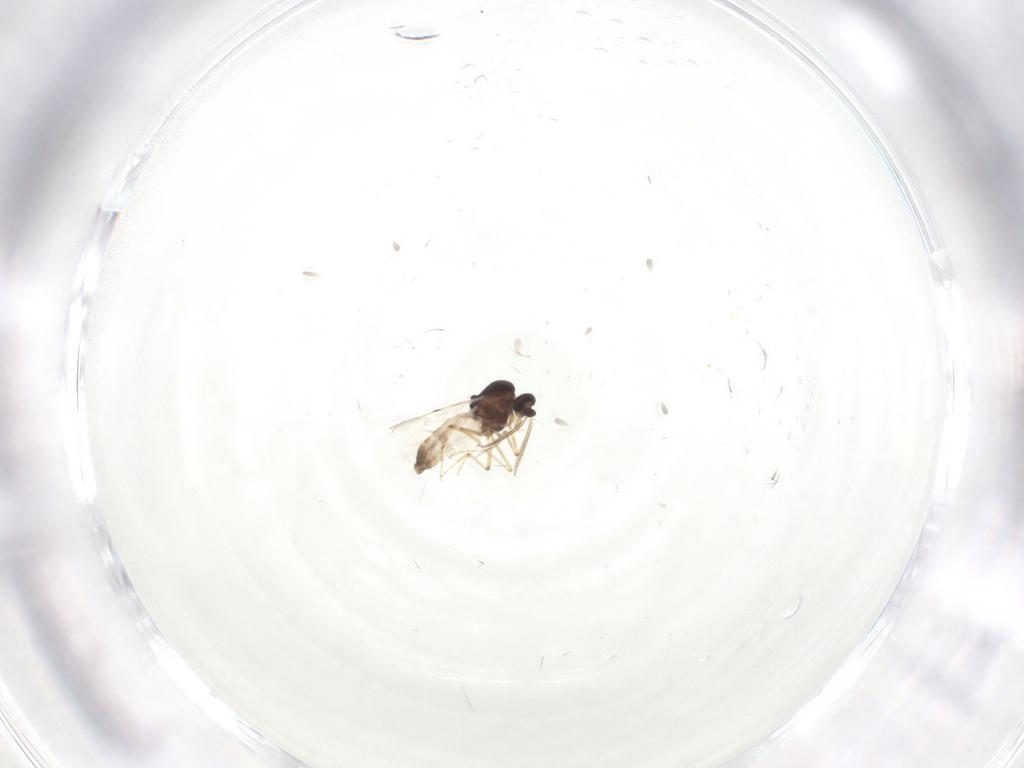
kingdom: Animalia
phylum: Arthropoda
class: Insecta
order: Diptera
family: Cecidomyiidae
